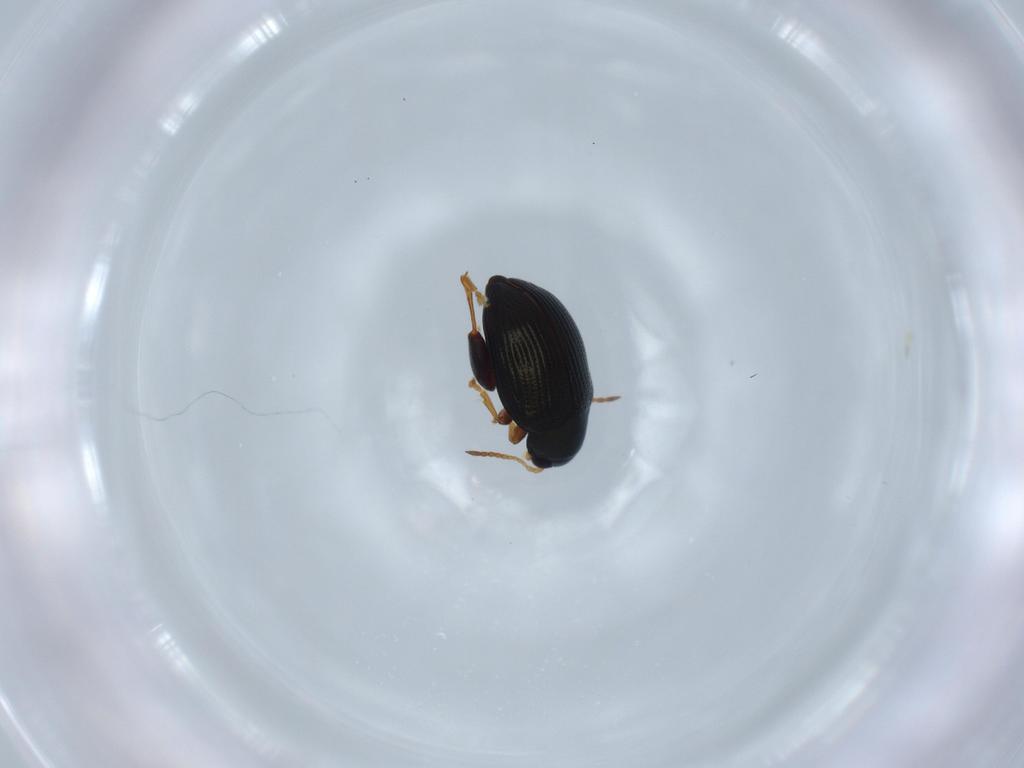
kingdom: Animalia
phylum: Arthropoda
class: Insecta
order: Coleoptera
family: Chrysomelidae
